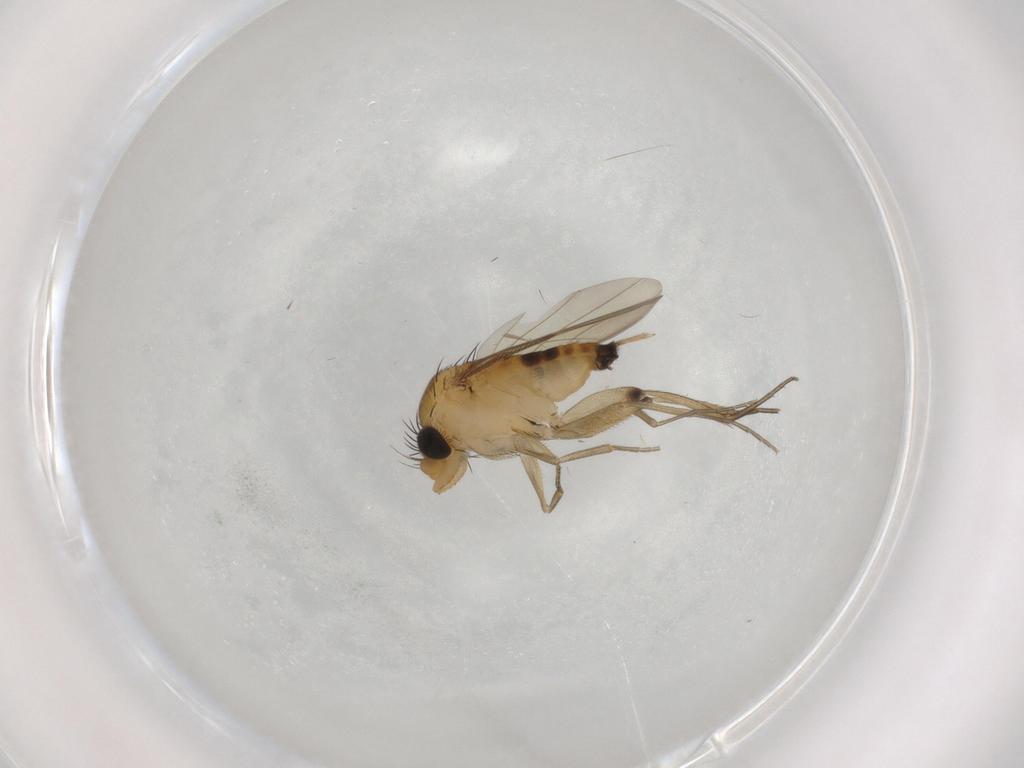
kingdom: Animalia
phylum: Arthropoda
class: Insecta
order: Diptera
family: Phoridae
